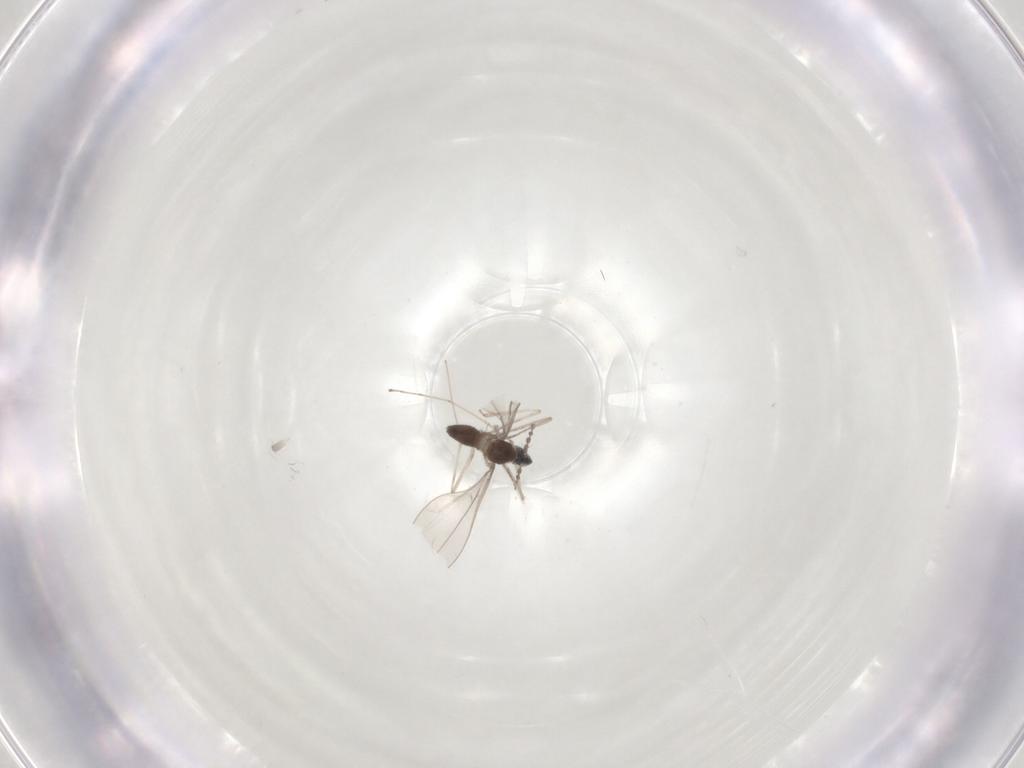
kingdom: Animalia
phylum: Arthropoda
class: Insecta
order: Diptera
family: Cecidomyiidae
